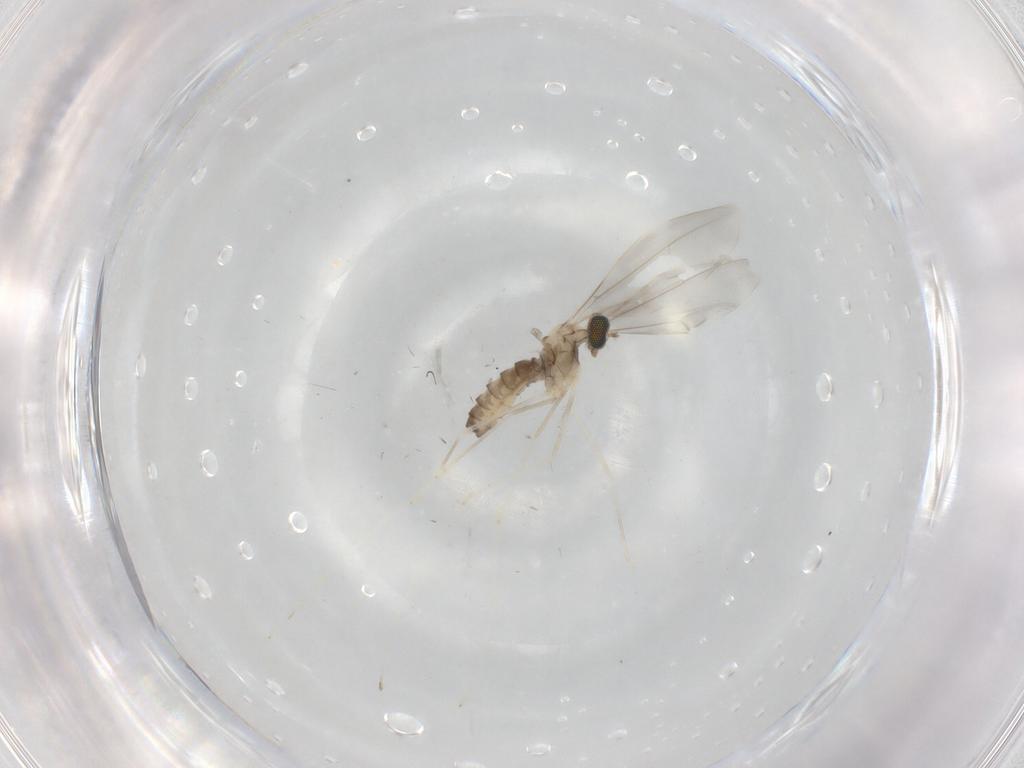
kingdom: Animalia
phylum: Arthropoda
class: Insecta
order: Diptera
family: Cecidomyiidae
